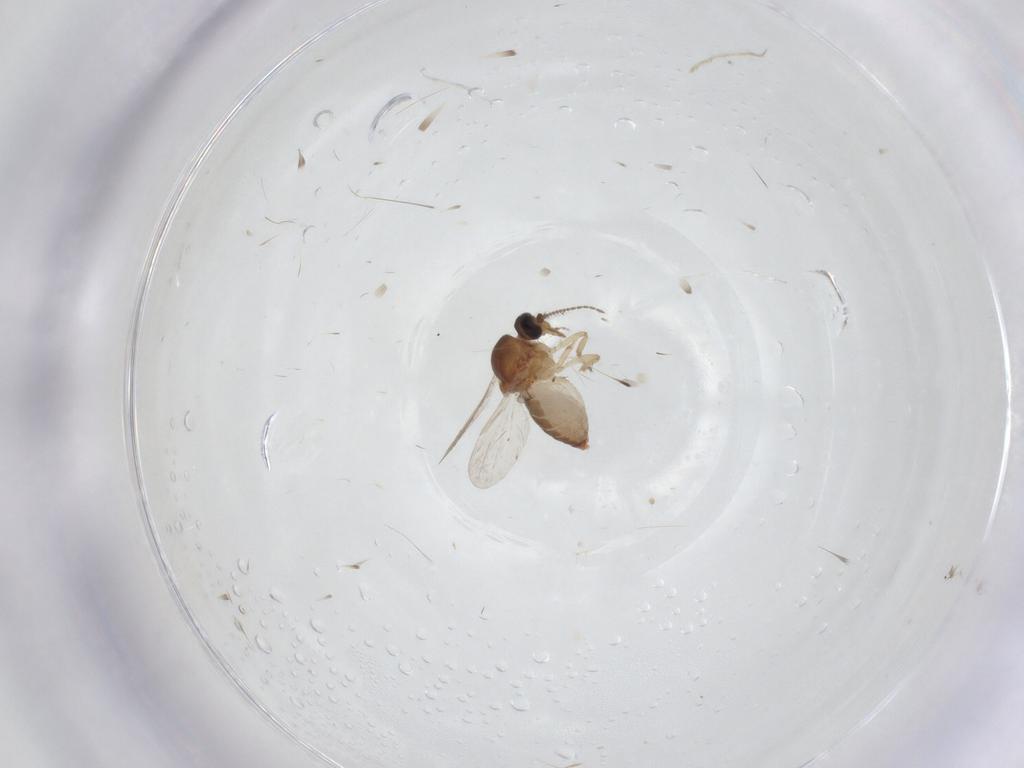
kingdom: Animalia
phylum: Arthropoda
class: Insecta
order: Diptera
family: Ceratopogonidae
